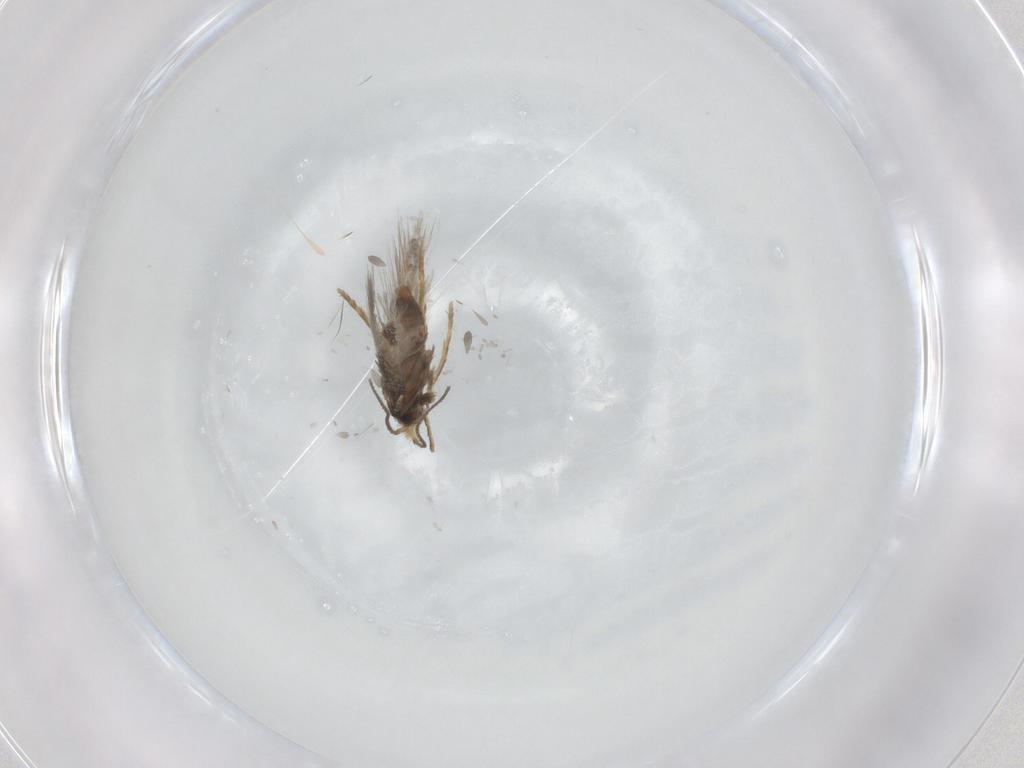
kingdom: Animalia
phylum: Arthropoda
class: Insecta
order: Lepidoptera
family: Nepticulidae
